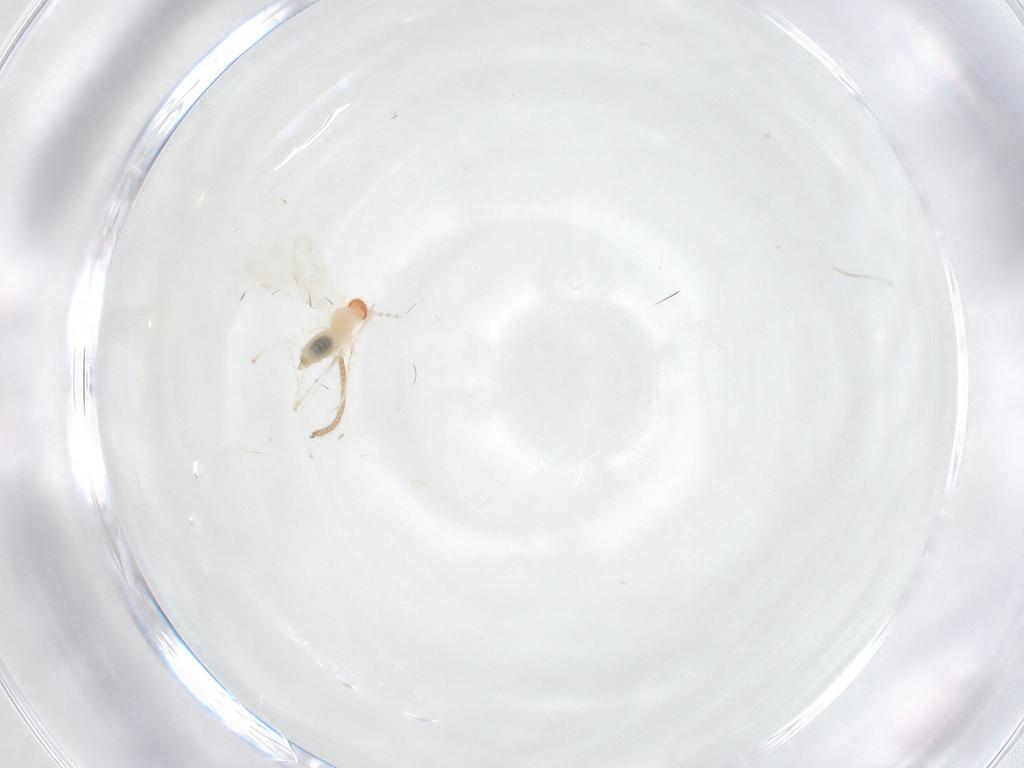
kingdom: Animalia
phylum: Arthropoda
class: Insecta
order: Diptera
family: Cecidomyiidae
